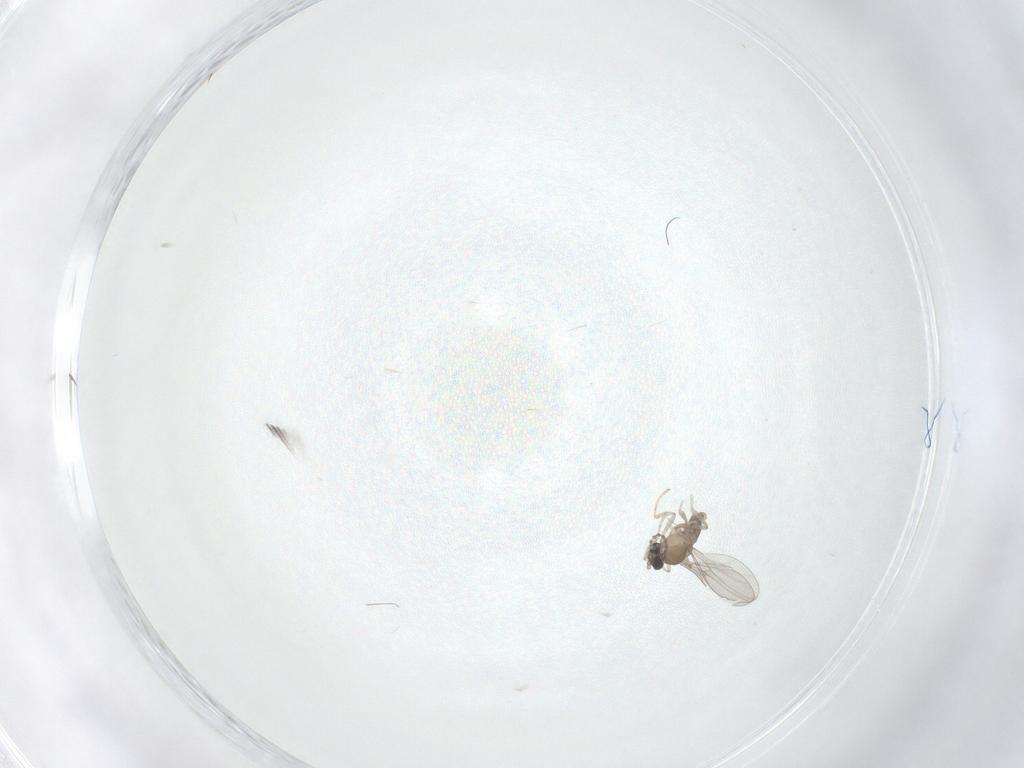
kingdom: Animalia
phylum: Arthropoda
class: Insecta
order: Diptera
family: Cecidomyiidae
